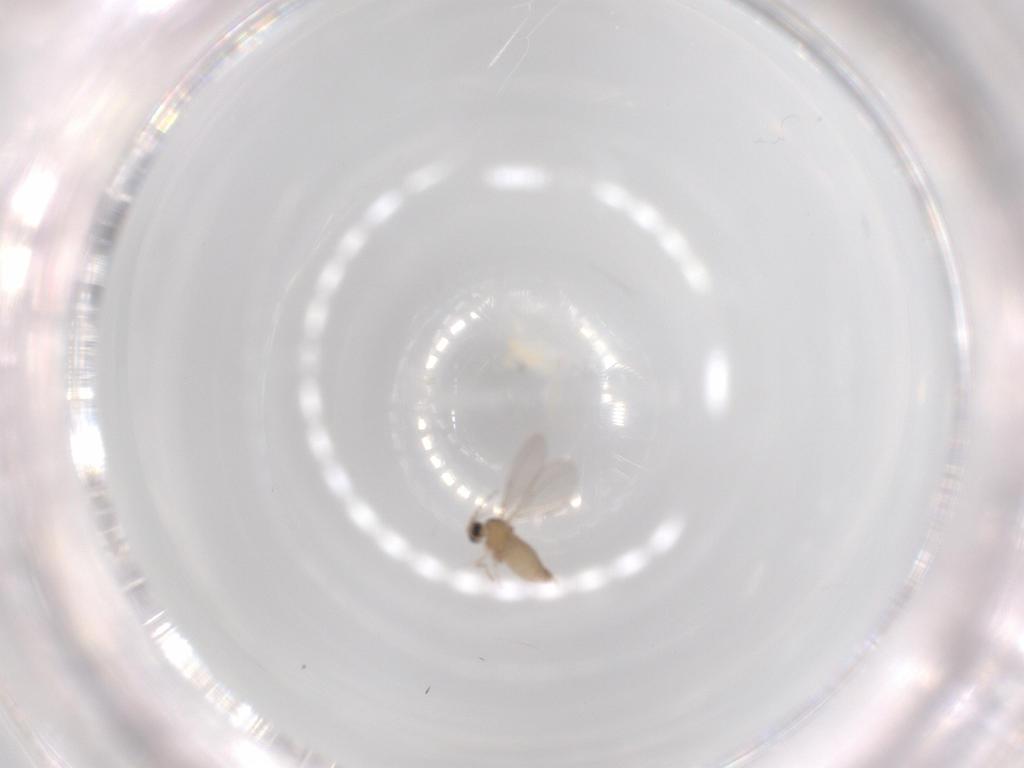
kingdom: Animalia
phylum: Arthropoda
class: Insecta
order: Diptera
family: Cecidomyiidae
